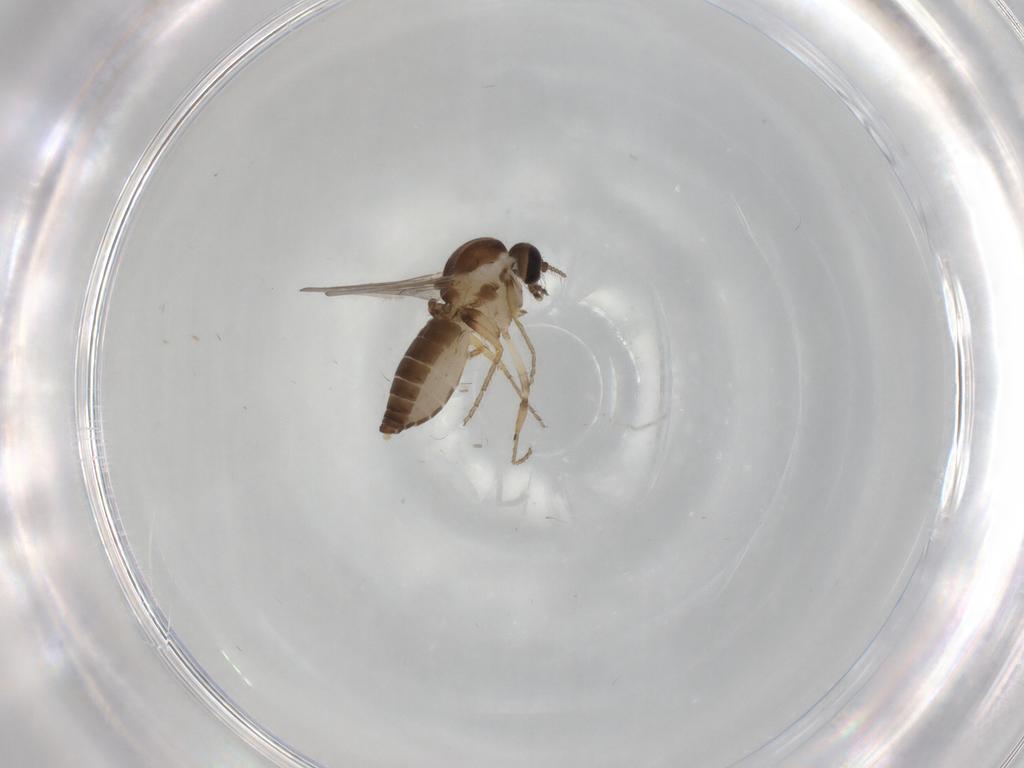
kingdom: Animalia
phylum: Arthropoda
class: Insecta
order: Diptera
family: Ceratopogonidae
